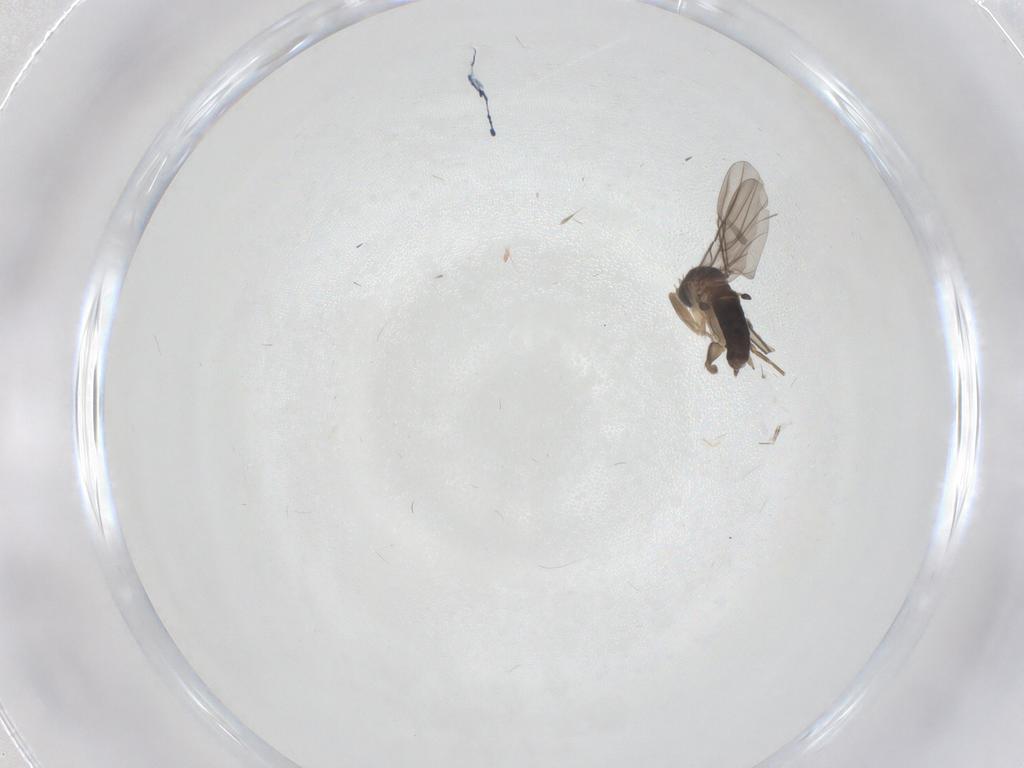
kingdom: Animalia
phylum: Arthropoda
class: Insecta
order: Diptera
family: Sciaridae
